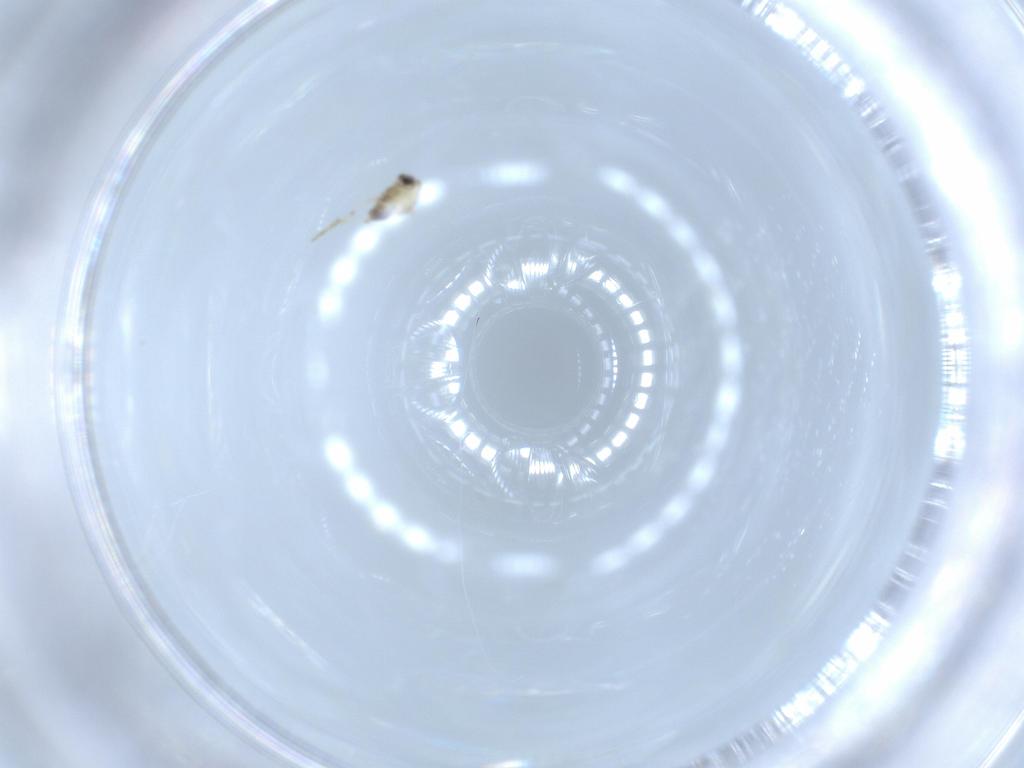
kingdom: Animalia
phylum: Arthropoda
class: Insecta
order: Diptera
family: Chironomidae
